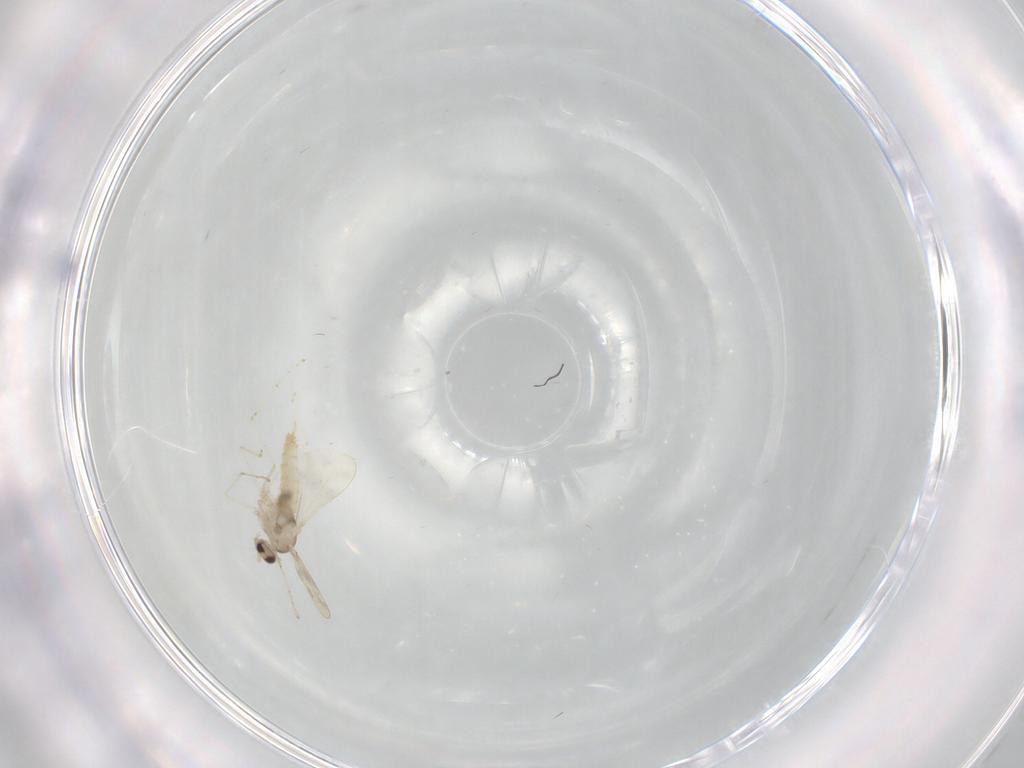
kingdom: Animalia
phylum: Arthropoda
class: Insecta
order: Diptera
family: Cecidomyiidae
